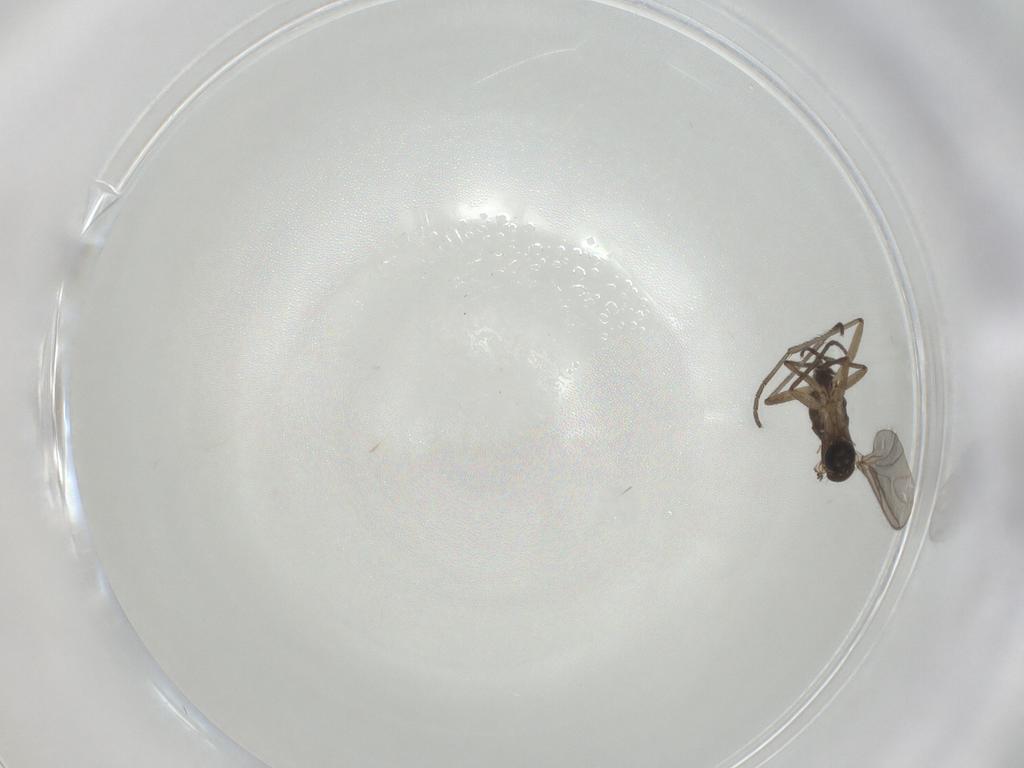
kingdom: Animalia
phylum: Arthropoda
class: Insecta
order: Diptera
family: Sciaridae
